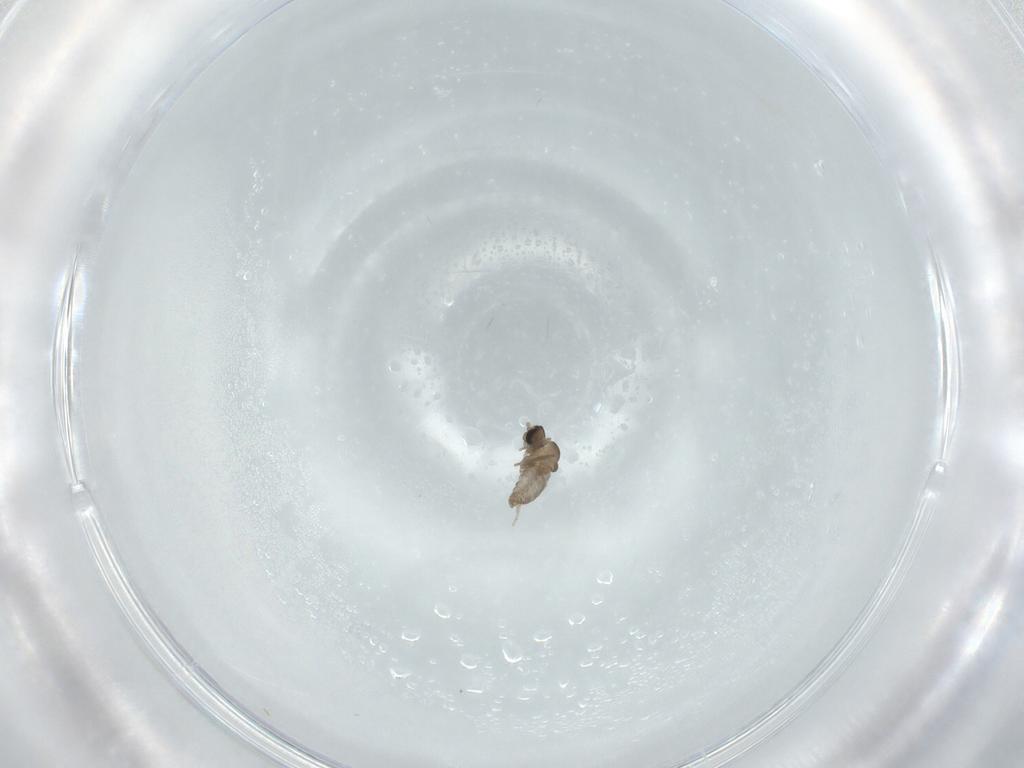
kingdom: Animalia
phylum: Arthropoda
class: Insecta
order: Diptera
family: Cecidomyiidae
